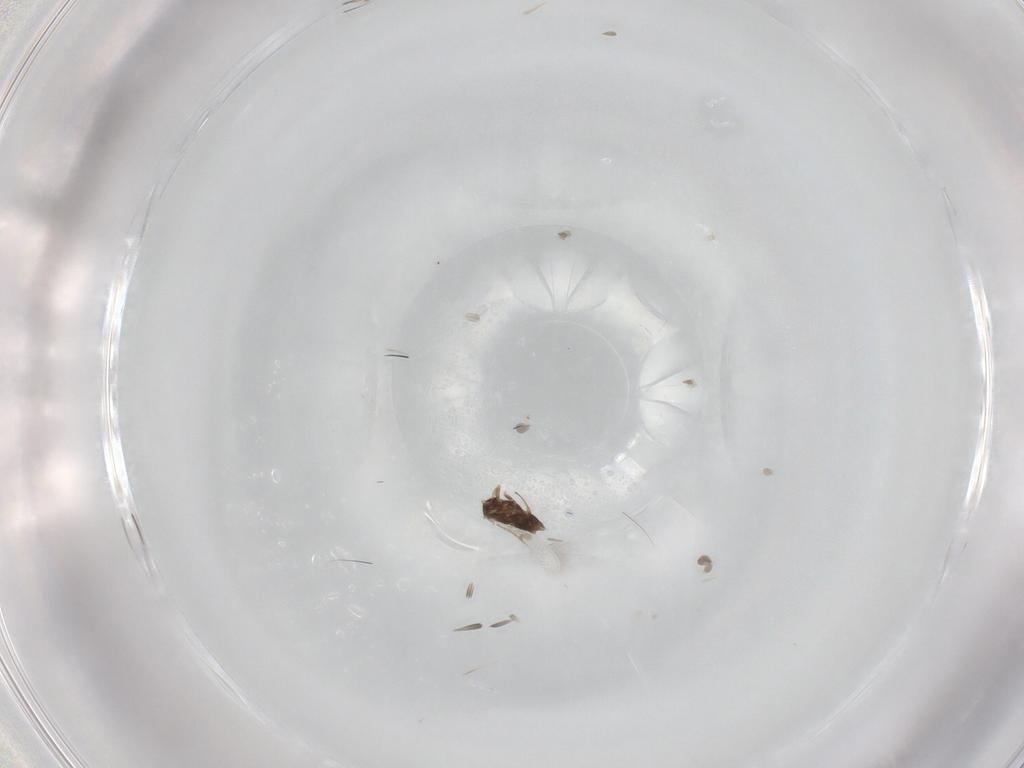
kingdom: Animalia
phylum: Arthropoda
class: Insecta
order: Hymenoptera
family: Ichneumonidae
